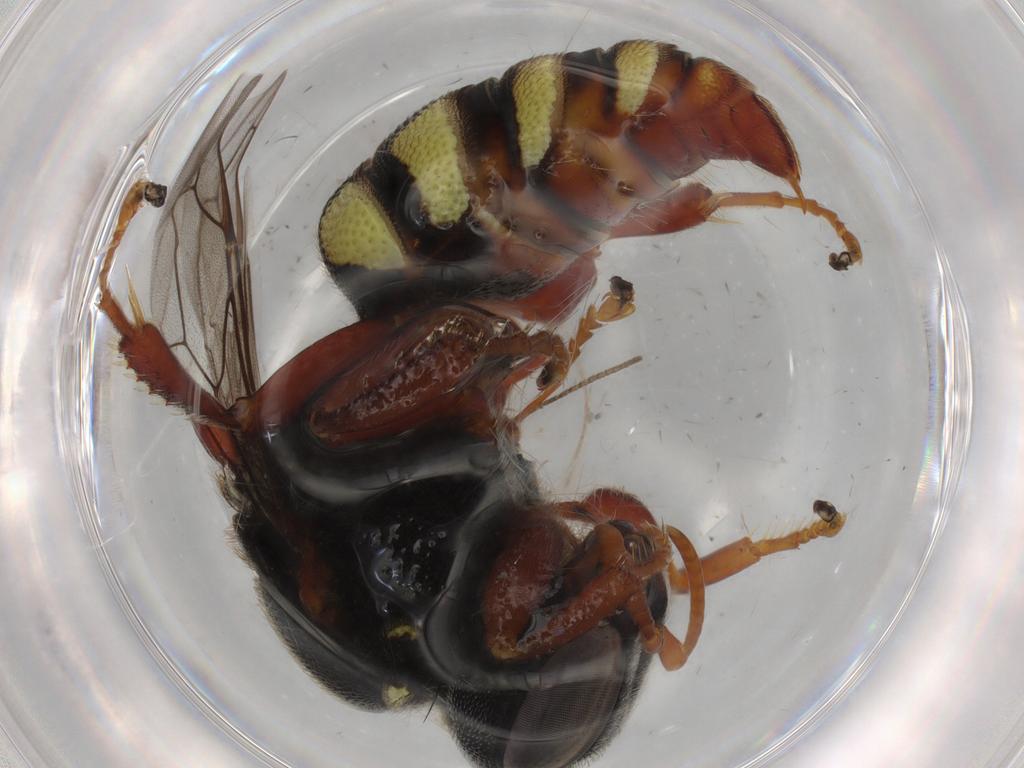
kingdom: Animalia
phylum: Arthropoda
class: Insecta
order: Hymenoptera
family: Crabronidae
